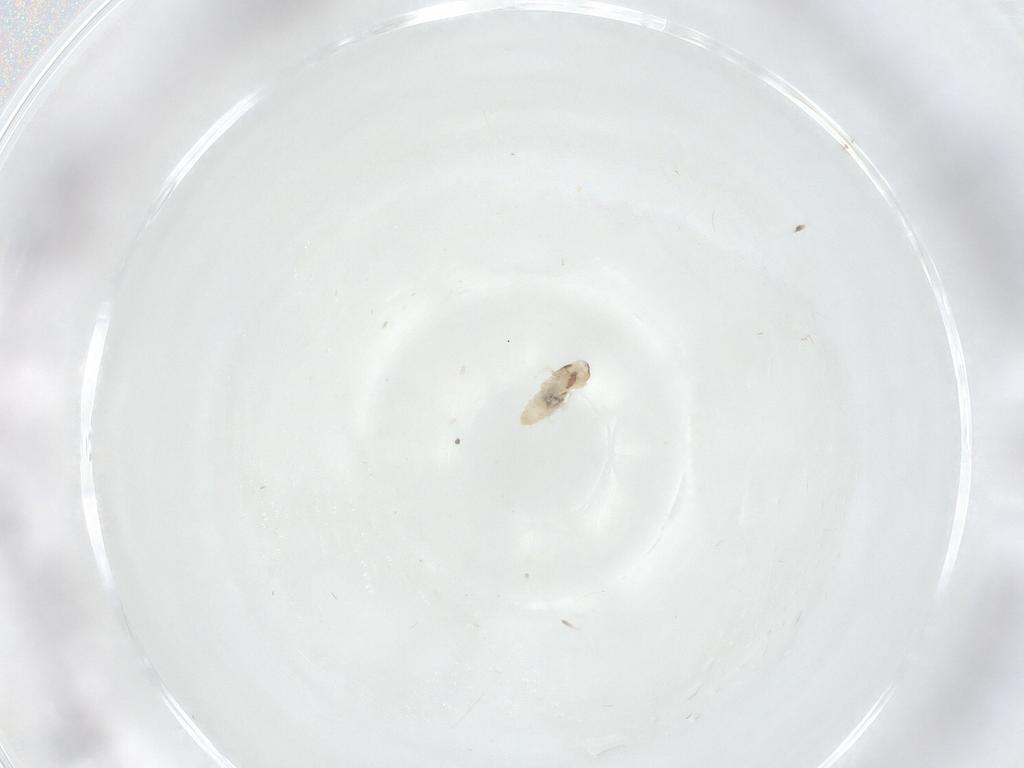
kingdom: Animalia
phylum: Arthropoda
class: Insecta
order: Diptera
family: Cecidomyiidae
